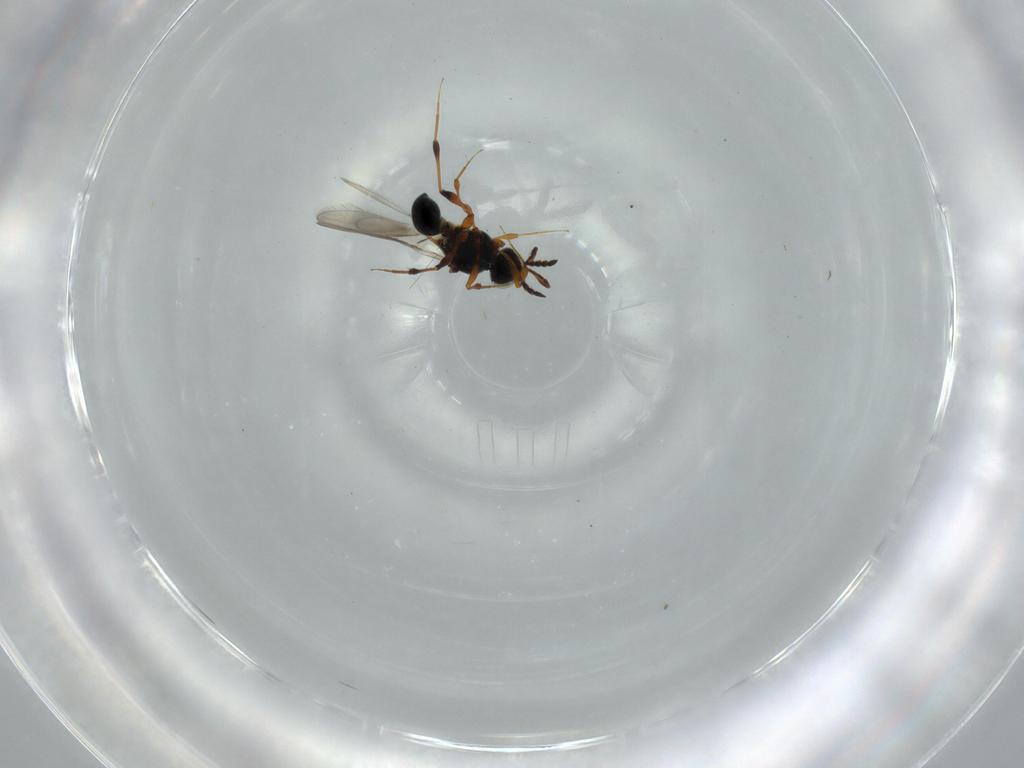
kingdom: Animalia
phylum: Arthropoda
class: Insecta
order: Hymenoptera
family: Platygastridae
